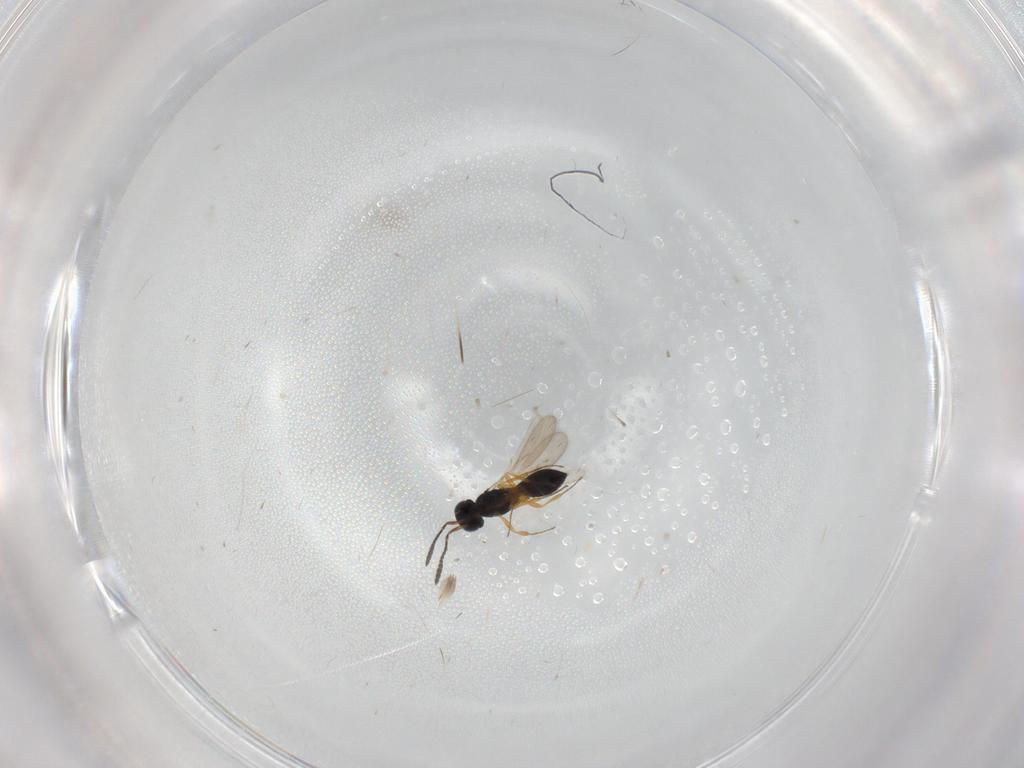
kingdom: Animalia
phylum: Arthropoda
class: Insecta
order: Hymenoptera
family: Scelionidae
